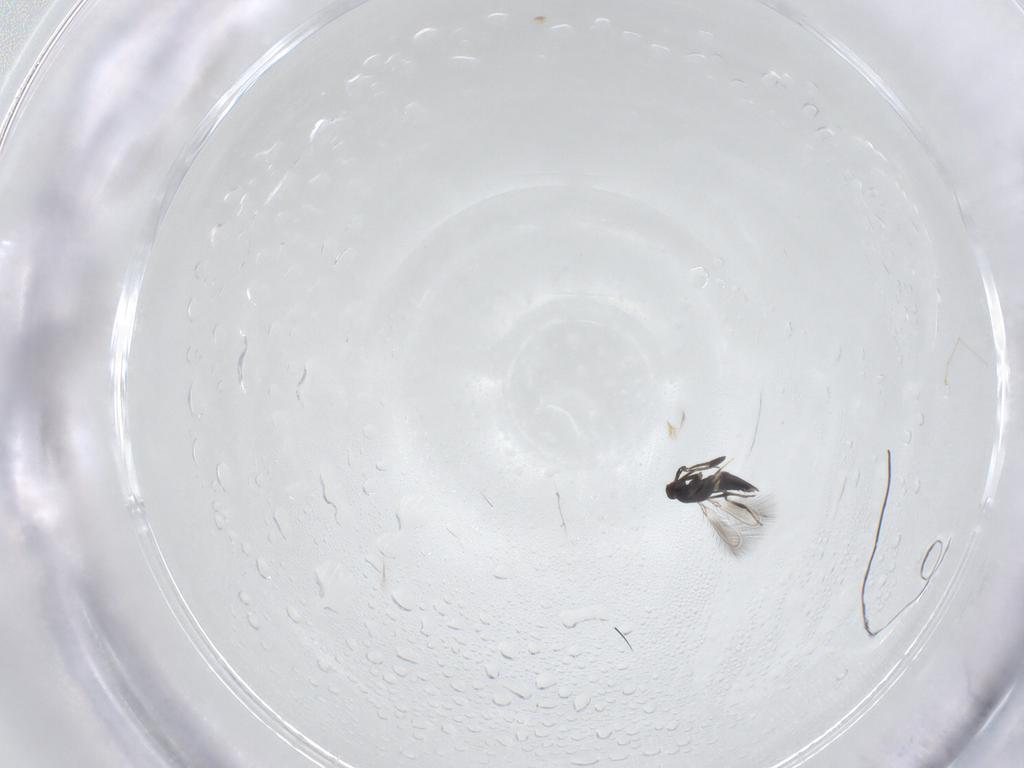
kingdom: Animalia
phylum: Arthropoda
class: Insecta
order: Hymenoptera
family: Mymaridae
